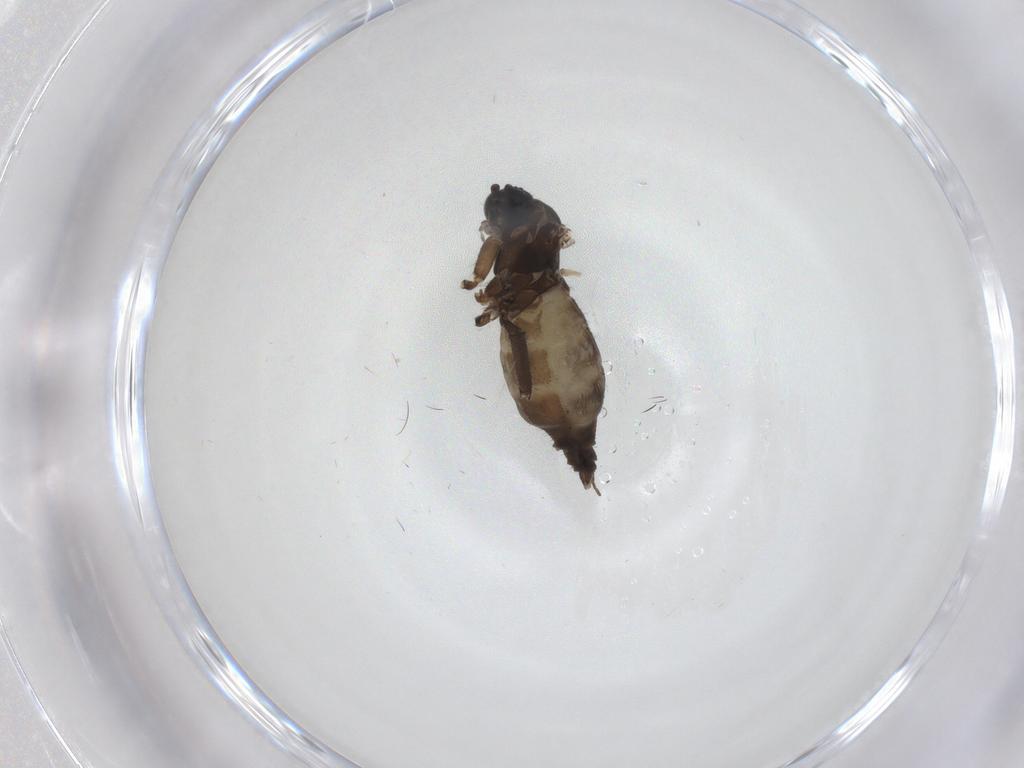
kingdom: Animalia
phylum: Arthropoda
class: Insecta
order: Diptera
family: Sciaridae
